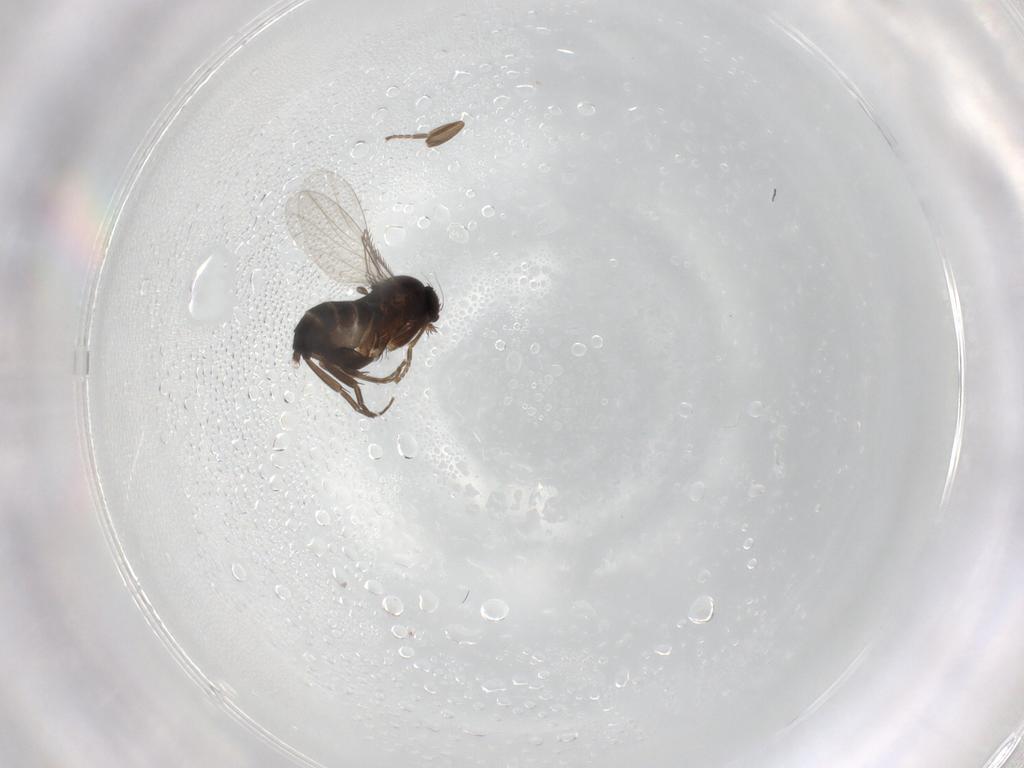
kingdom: Animalia
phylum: Arthropoda
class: Insecta
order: Diptera
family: Phoridae
